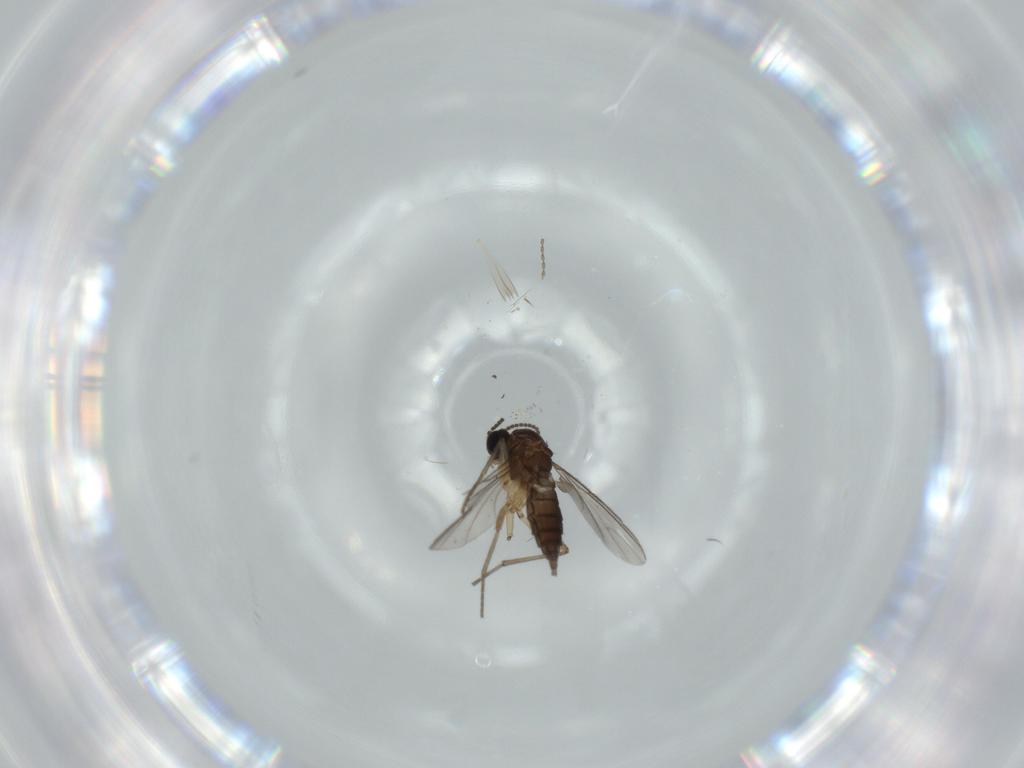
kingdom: Animalia
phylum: Arthropoda
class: Insecta
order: Diptera
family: Sciaridae
